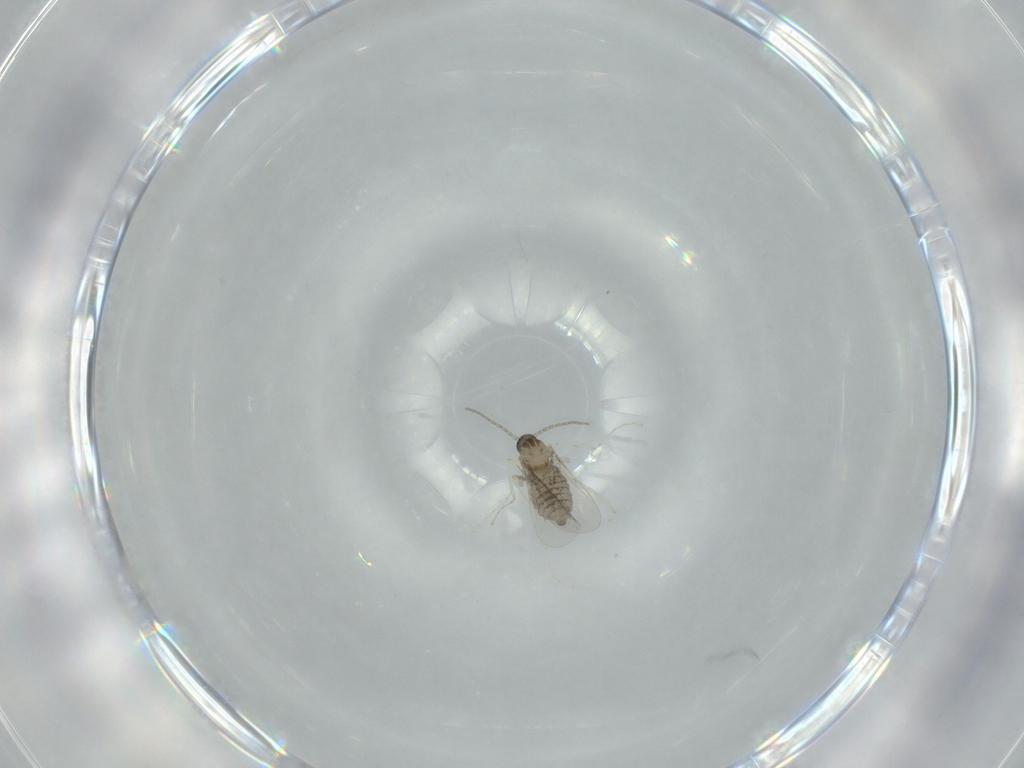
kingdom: Animalia
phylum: Arthropoda
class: Insecta
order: Diptera
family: Cecidomyiidae
